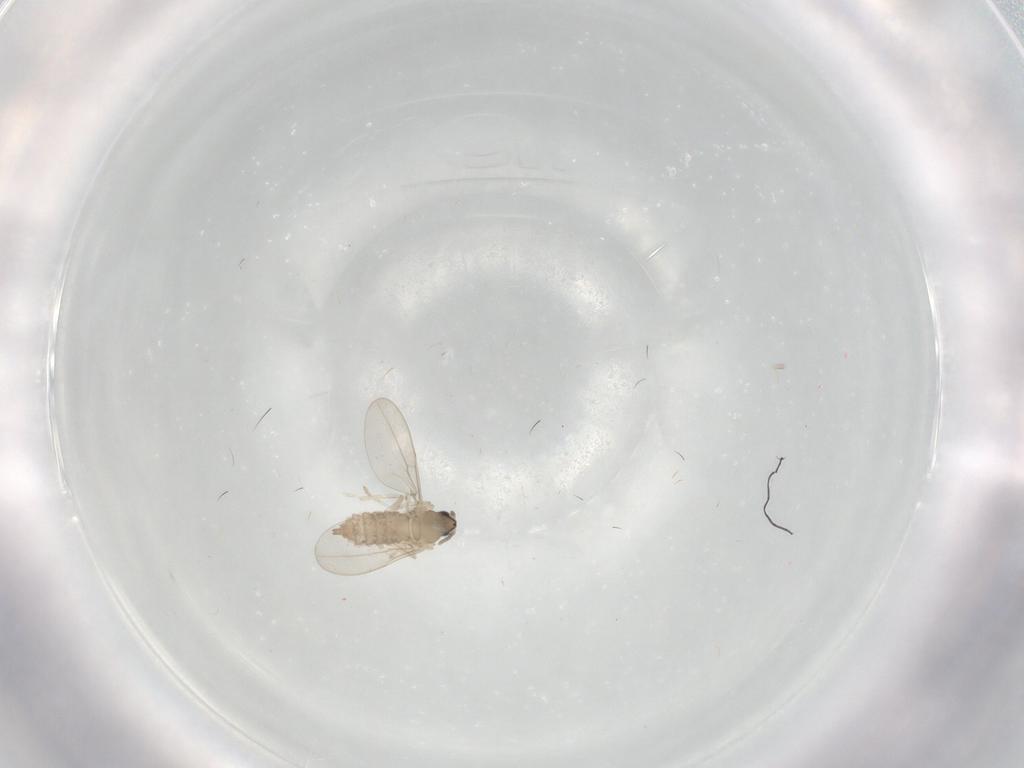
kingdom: Animalia
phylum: Arthropoda
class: Insecta
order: Diptera
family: Cecidomyiidae
